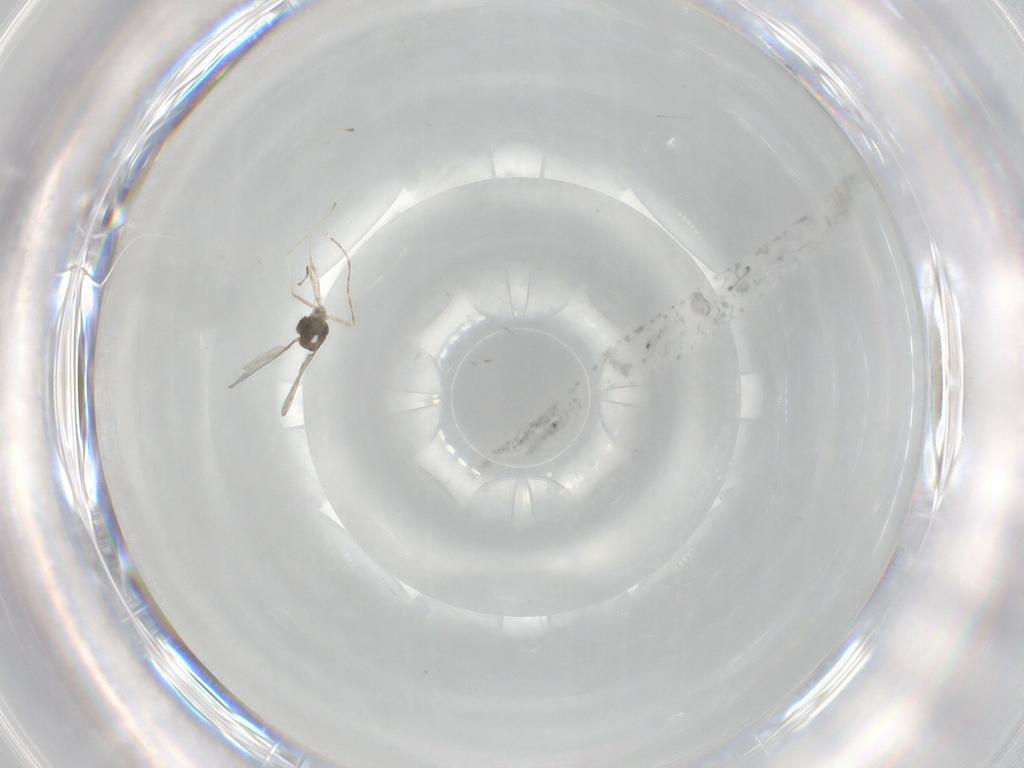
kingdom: Animalia
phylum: Arthropoda
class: Insecta
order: Diptera
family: Cecidomyiidae
